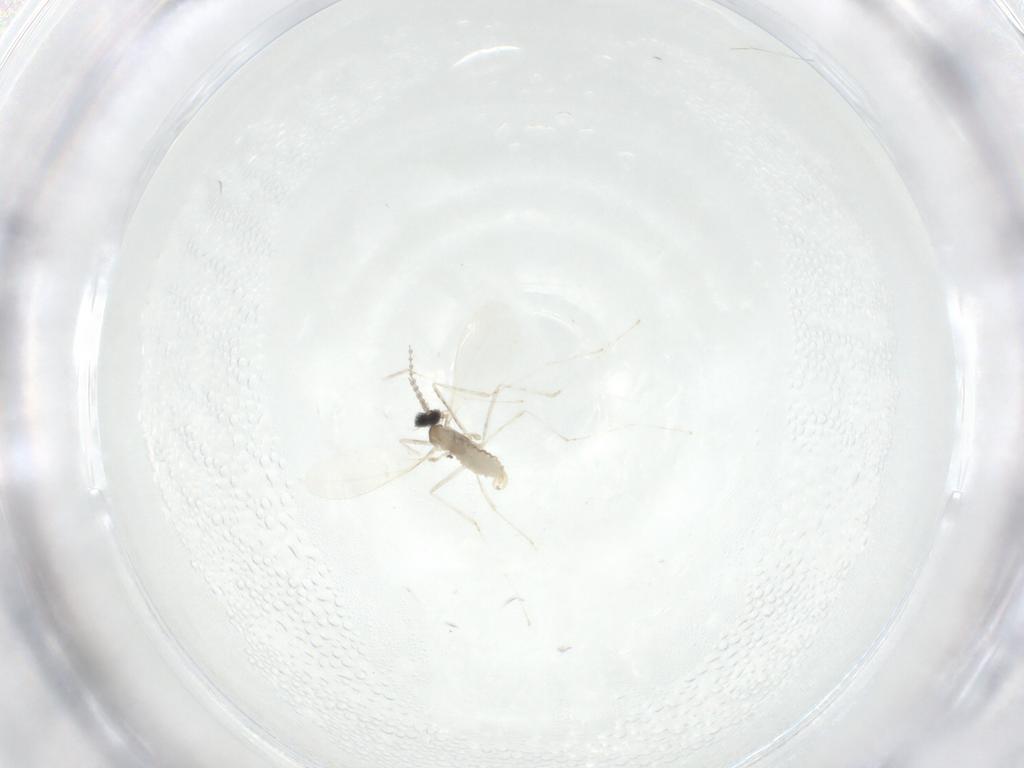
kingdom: Animalia
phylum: Arthropoda
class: Insecta
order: Diptera
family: Cecidomyiidae
